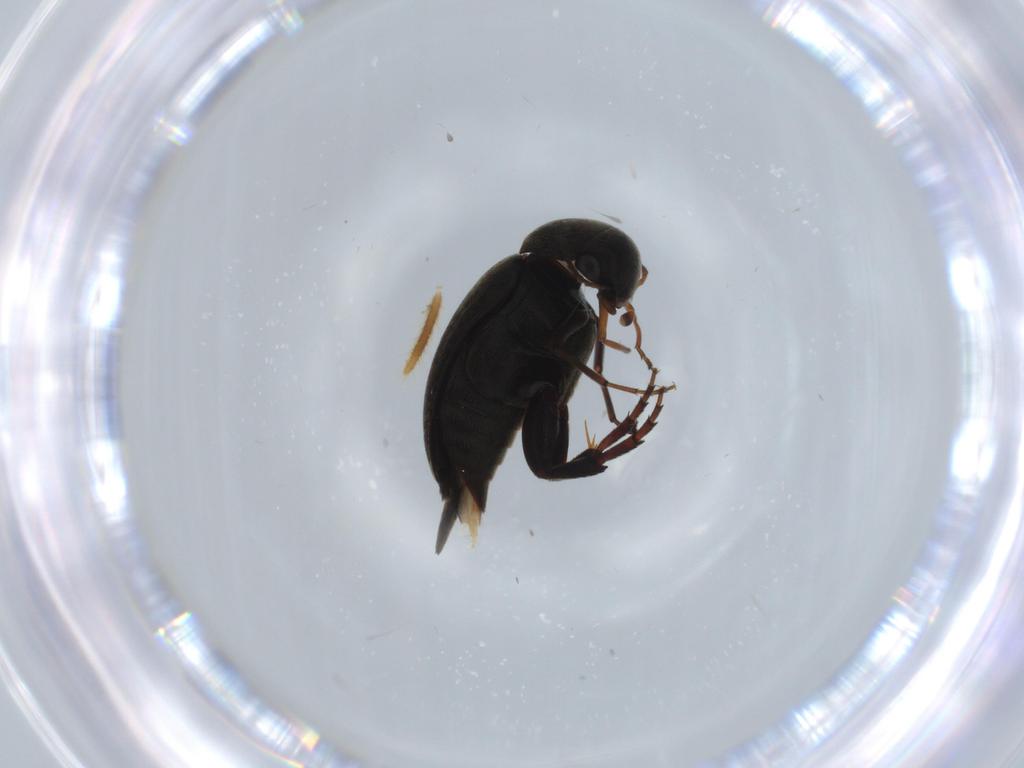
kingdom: Animalia
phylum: Arthropoda
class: Insecta
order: Coleoptera
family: Mordellidae
